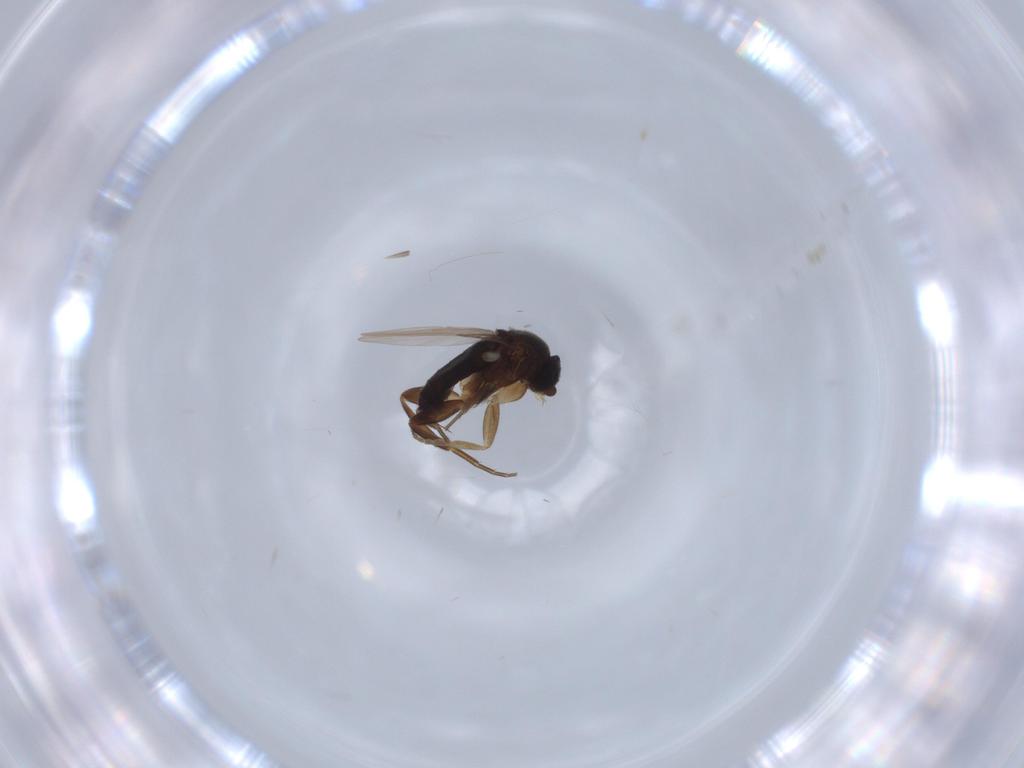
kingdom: Animalia
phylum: Arthropoda
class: Insecta
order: Diptera
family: Phoridae
